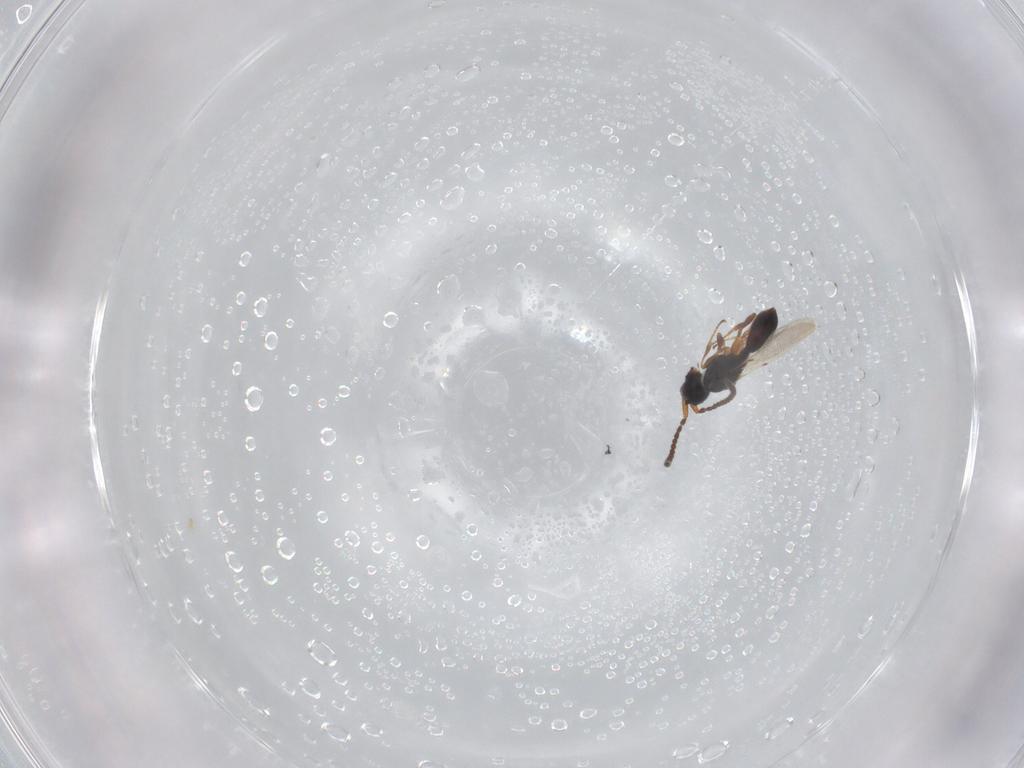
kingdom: Animalia
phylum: Arthropoda
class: Insecta
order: Hymenoptera
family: Diapriidae
